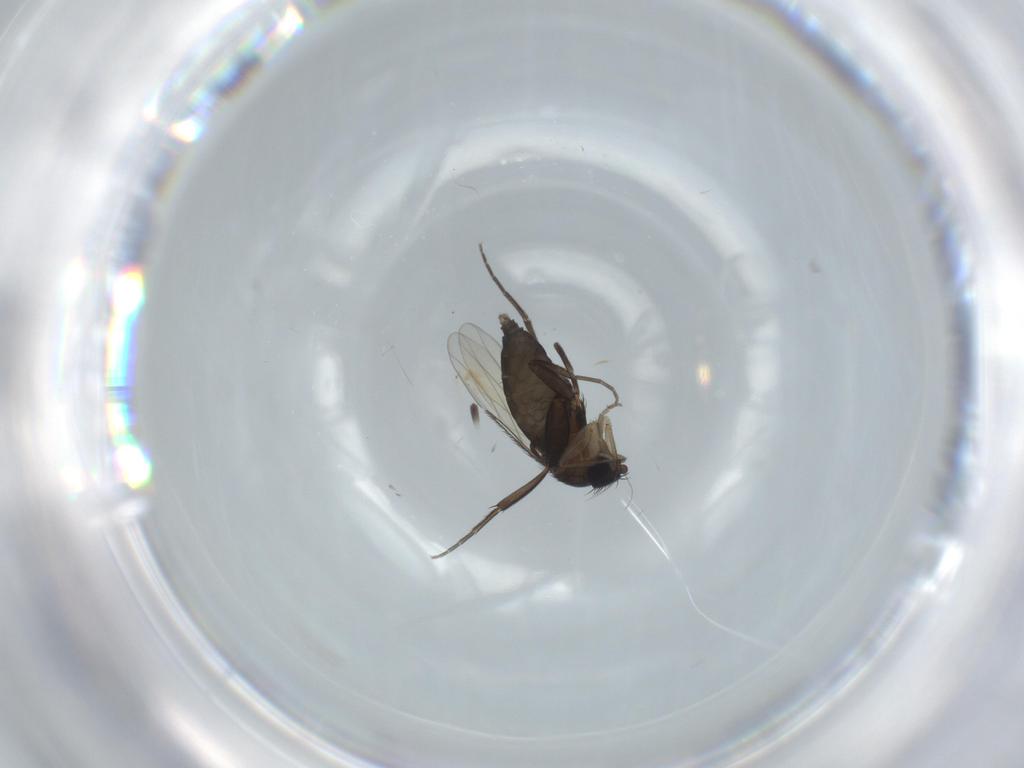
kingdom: Animalia
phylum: Arthropoda
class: Insecta
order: Diptera
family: Phoridae
